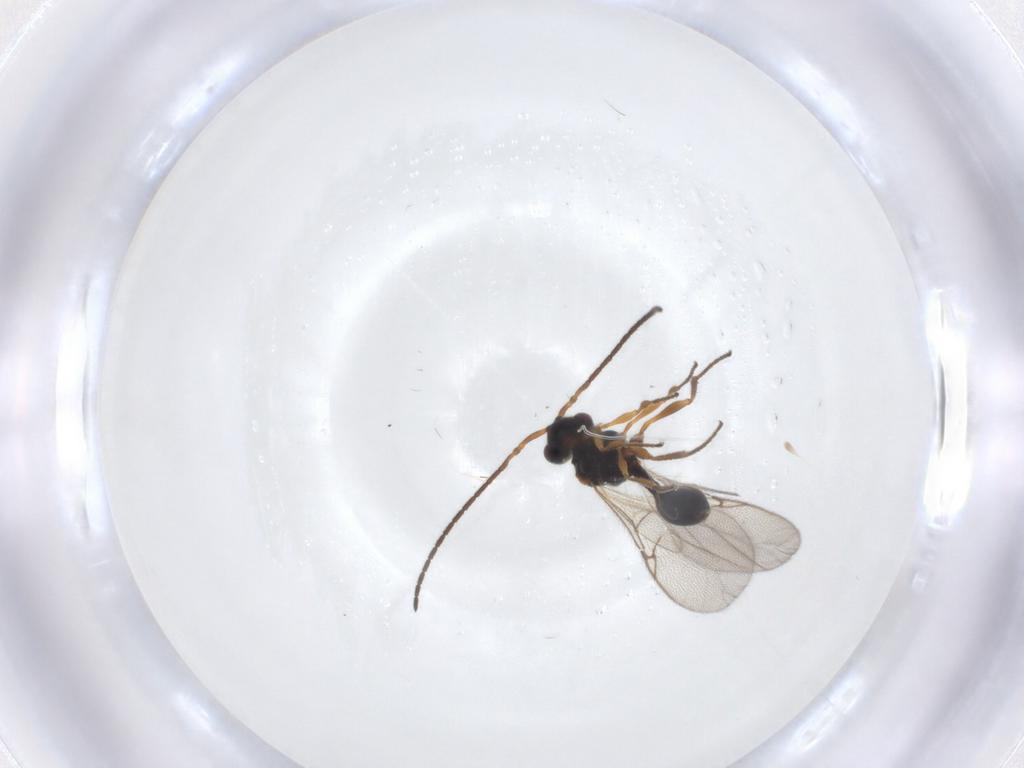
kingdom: Animalia
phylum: Arthropoda
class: Insecta
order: Hymenoptera
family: Diapriidae
